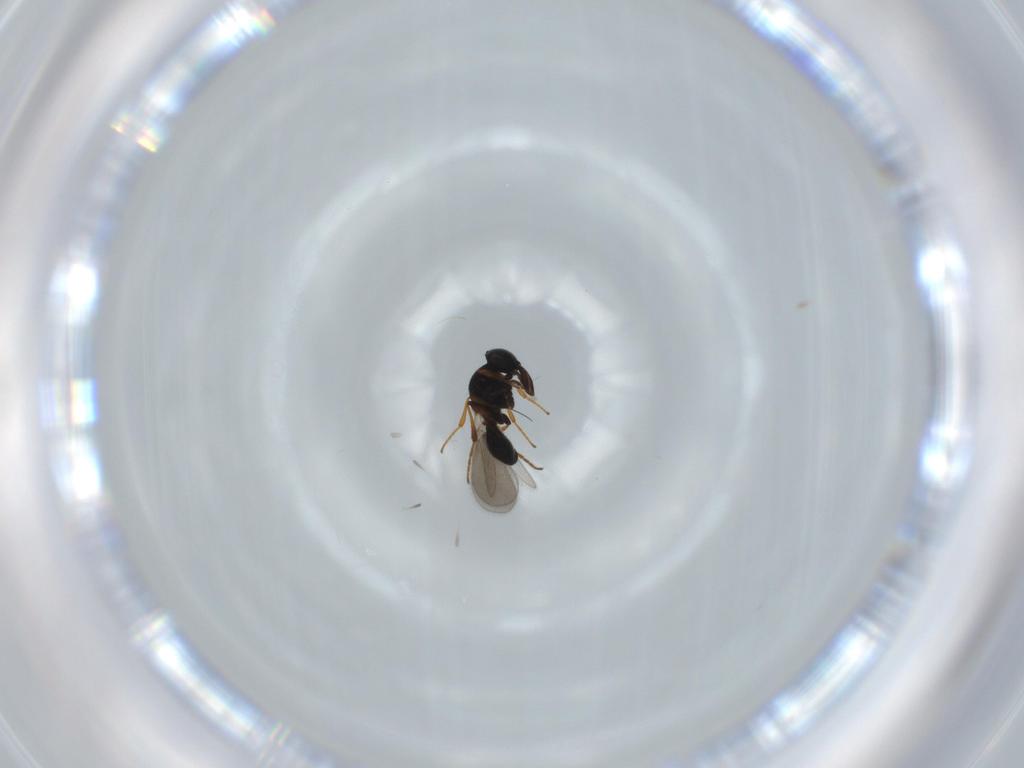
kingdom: Animalia
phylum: Arthropoda
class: Insecta
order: Hymenoptera
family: Platygastridae
